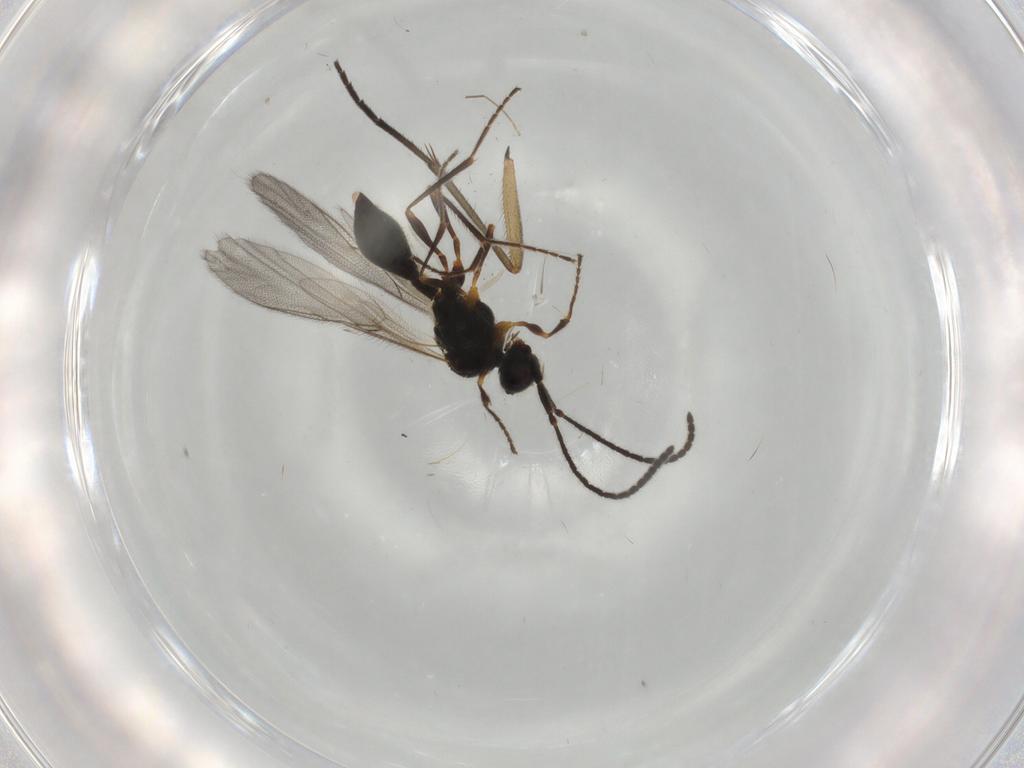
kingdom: Animalia
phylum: Arthropoda
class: Insecta
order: Hymenoptera
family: Diapriidae
